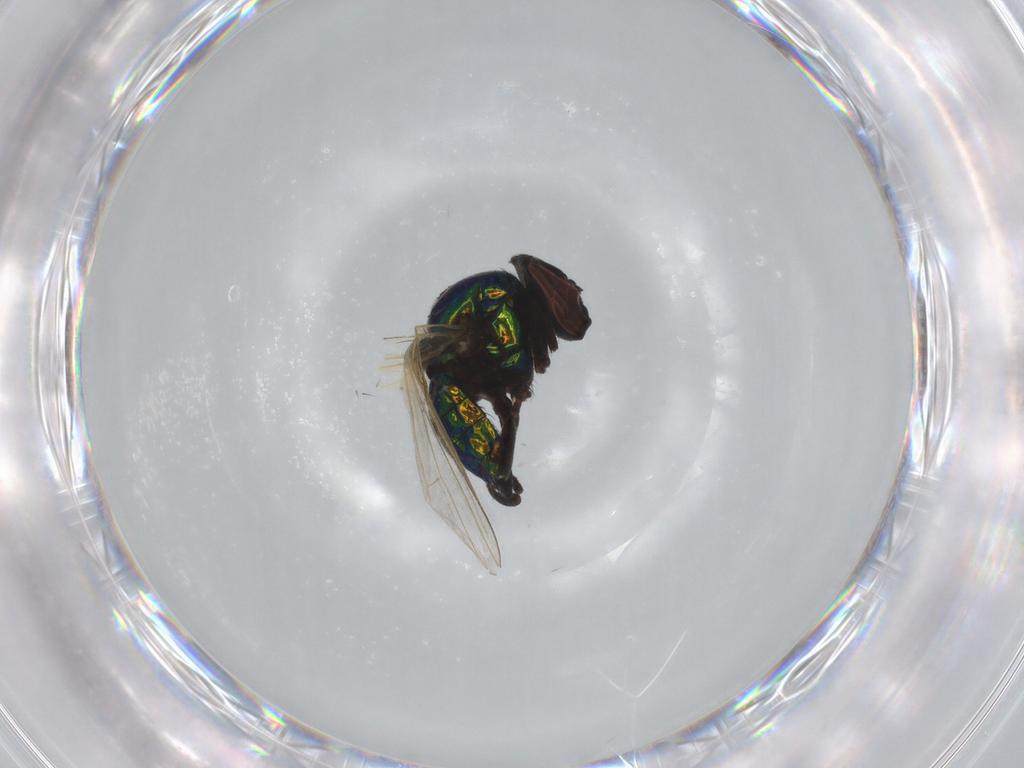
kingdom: Animalia
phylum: Arthropoda
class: Insecta
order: Diptera
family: Lonchaeidae
